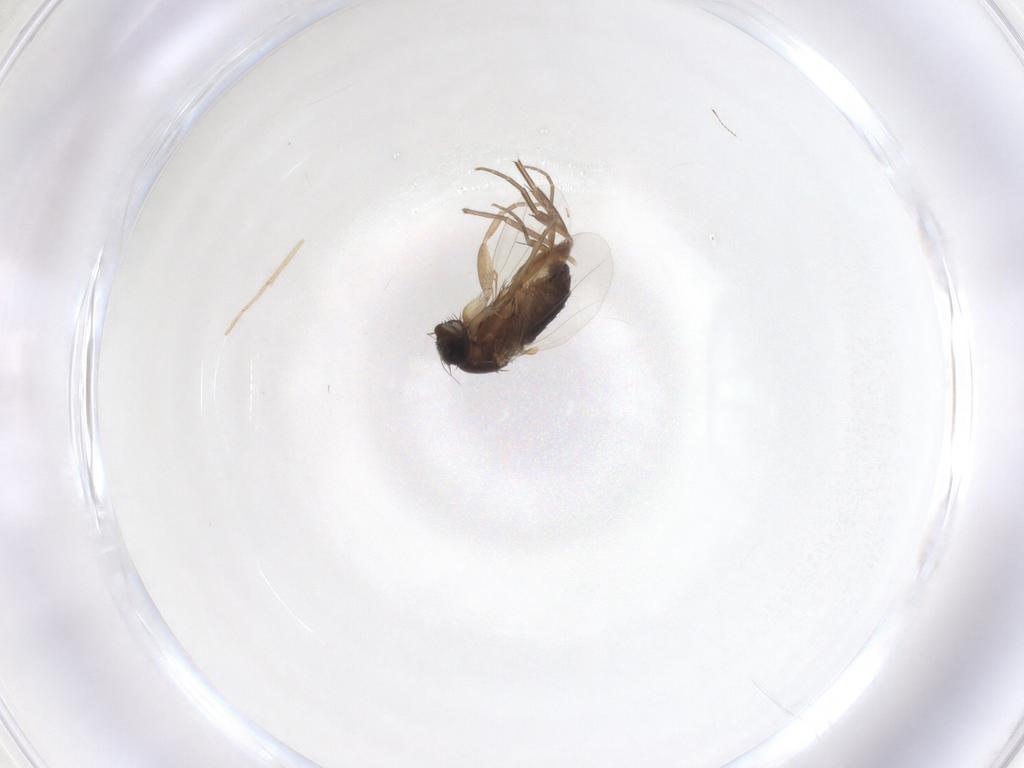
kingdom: Animalia
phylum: Arthropoda
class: Insecta
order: Diptera
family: Phoridae
